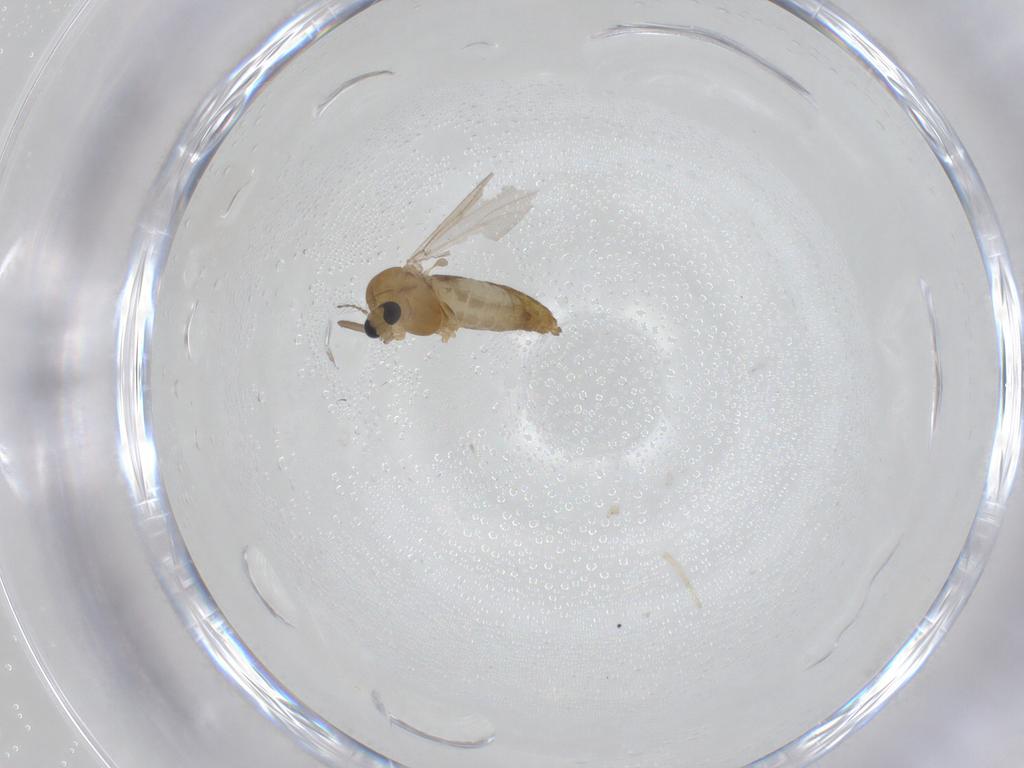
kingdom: Animalia
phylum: Arthropoda
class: Insecta
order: Diptera
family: Chironomidae
